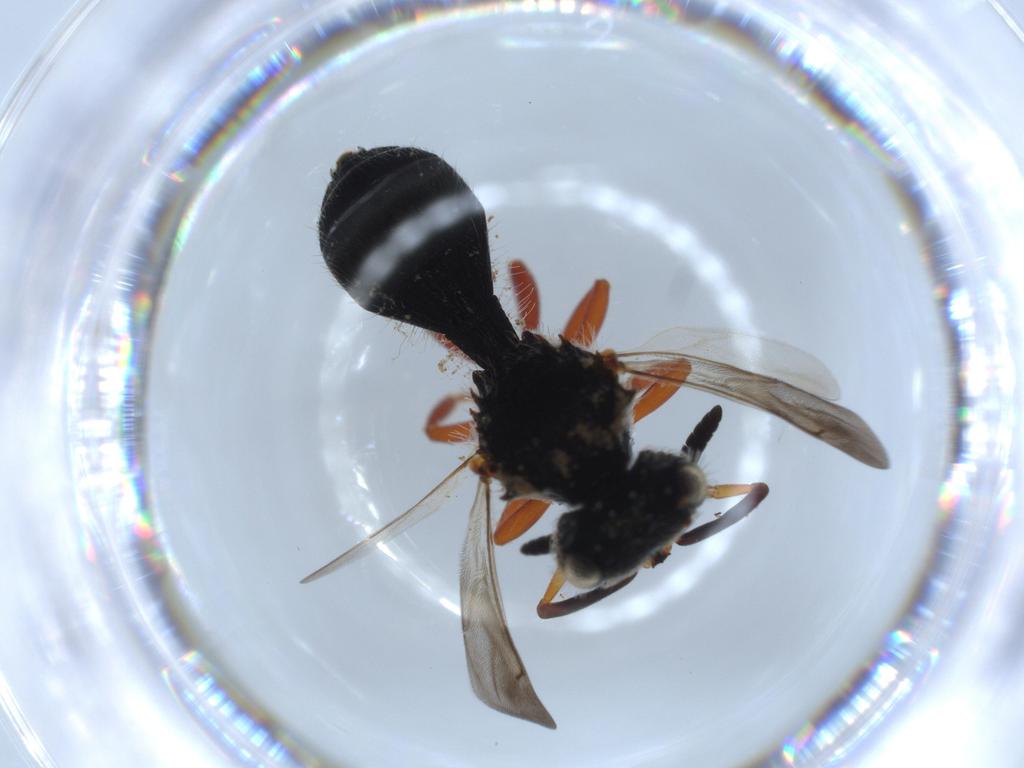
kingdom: Animalia
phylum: Arthropoda
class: Insecta
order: Hymenoptera
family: Scelionidae
